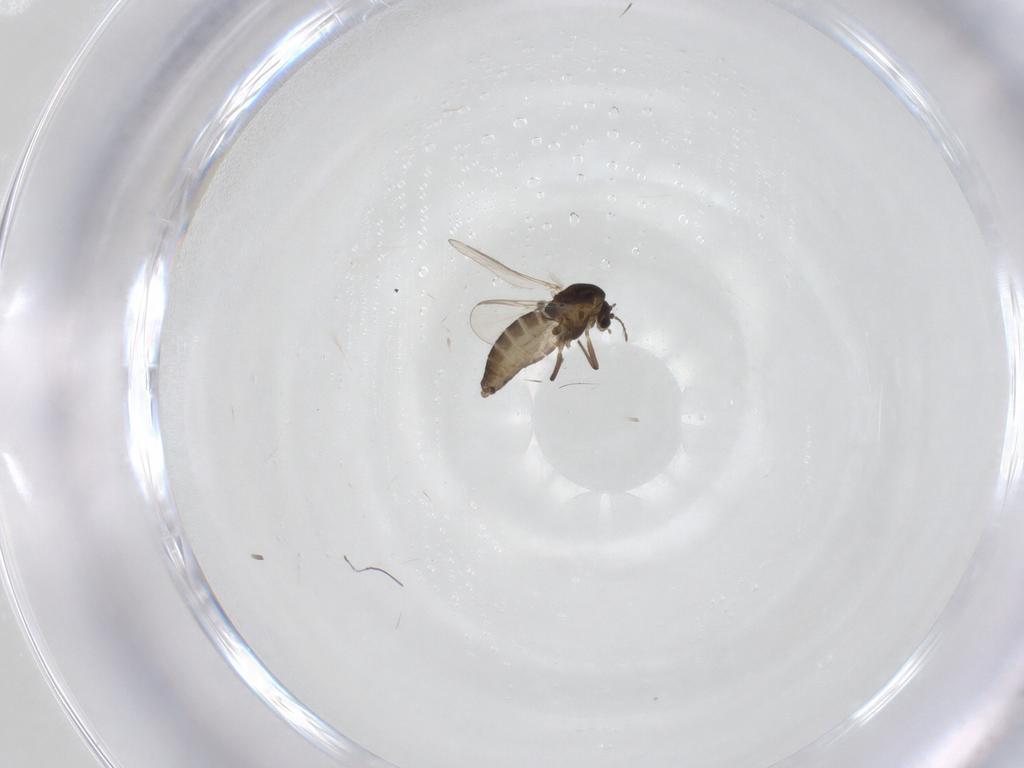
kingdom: Animalia
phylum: Arthropoda
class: Insecta
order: Diptera
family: Chironomidae
